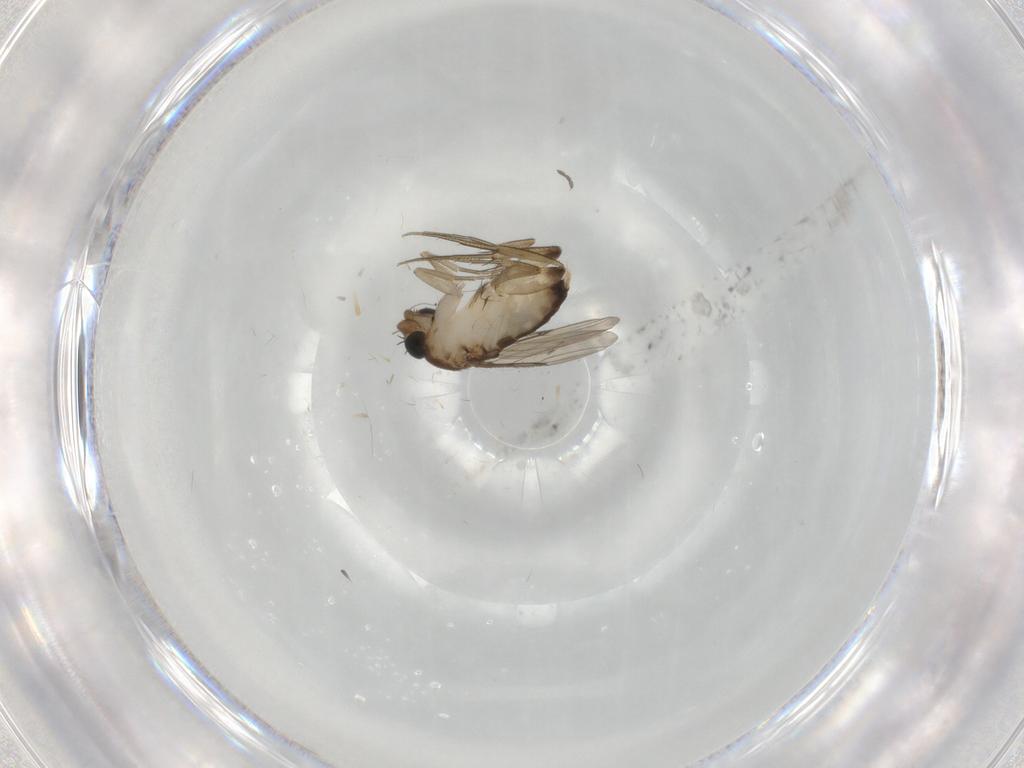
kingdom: Animalia
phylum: Arthropoda
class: Insecta
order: Diptera
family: Phoridae
